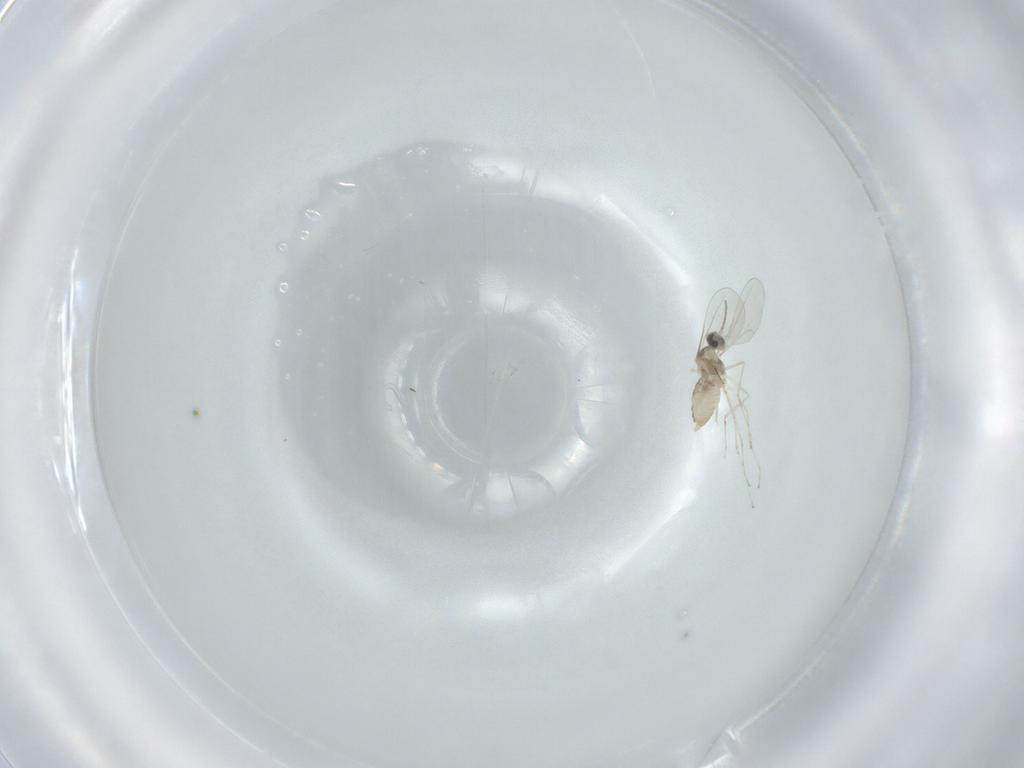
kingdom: Animalia
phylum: Arthropoda
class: Insecta
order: Diptera
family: Cecidomyiidae
